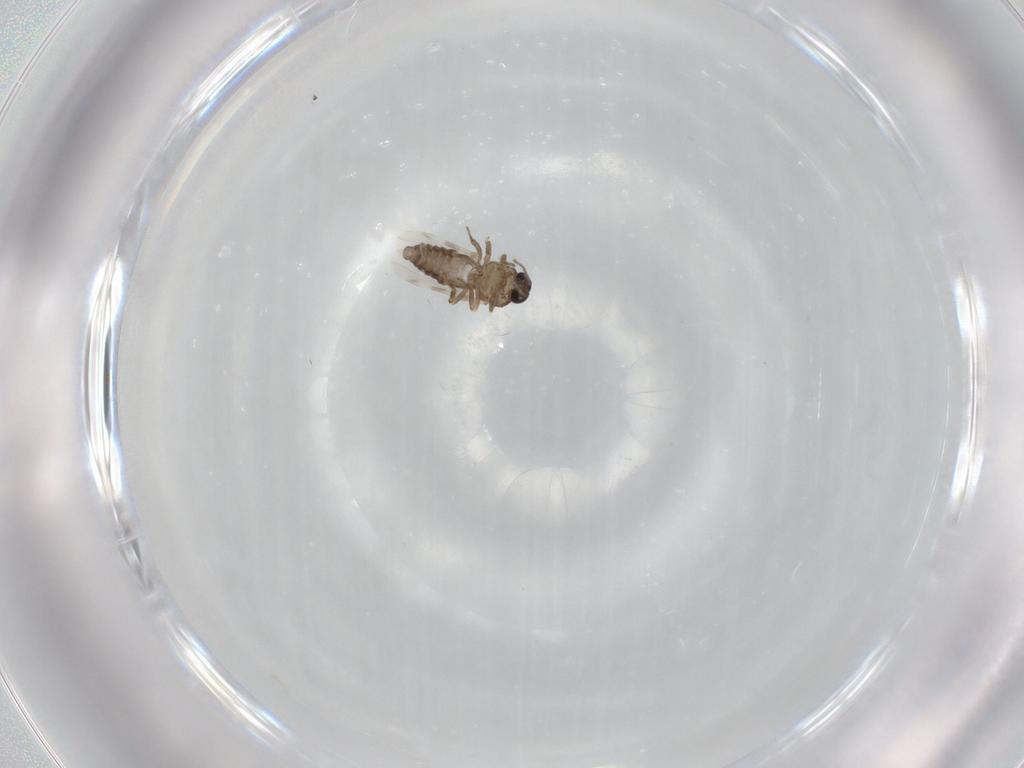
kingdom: Animalia
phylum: Arthropoda
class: Insecta
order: Diptera
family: Ceratopogonidae
